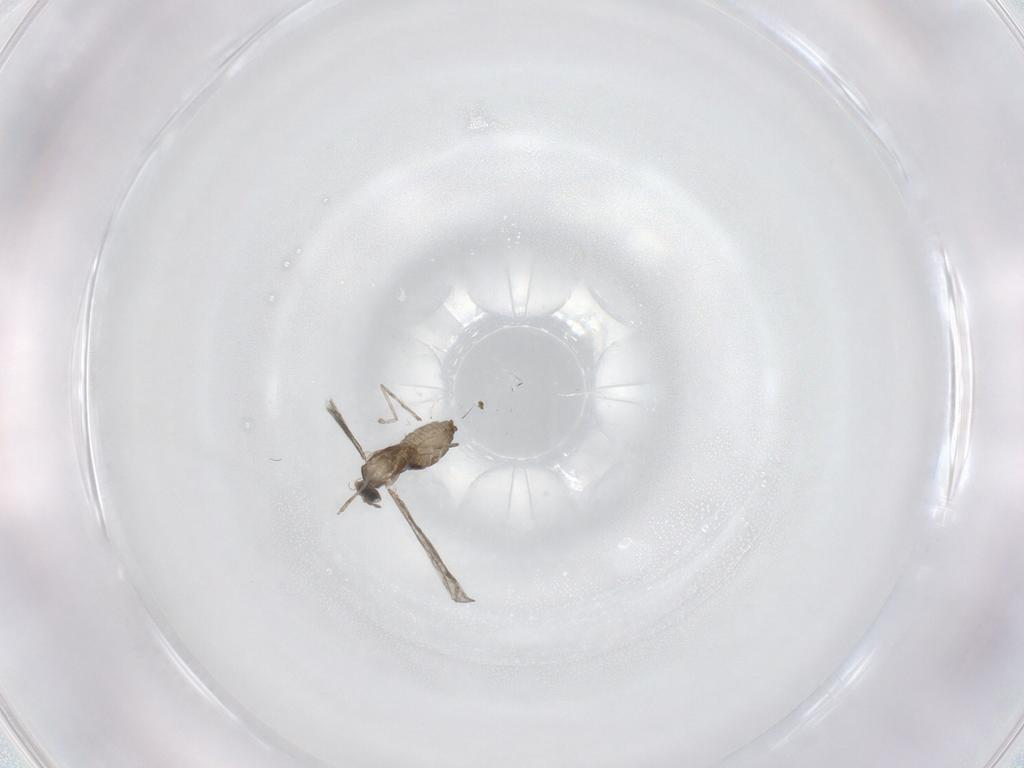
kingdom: Animalia
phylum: Arthropoda
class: Insecta
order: Diptera
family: Cecidomyiidae
